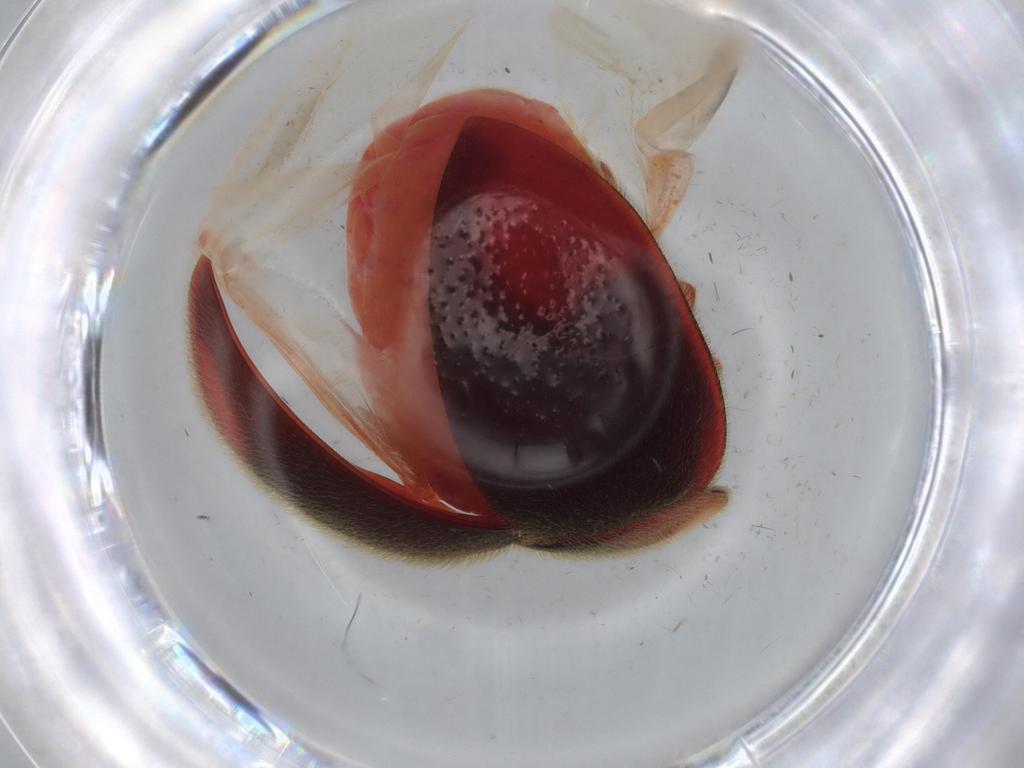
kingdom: Animalia
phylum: Arthropoda
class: Insecta
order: Coleoptera
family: Coccinellidae
